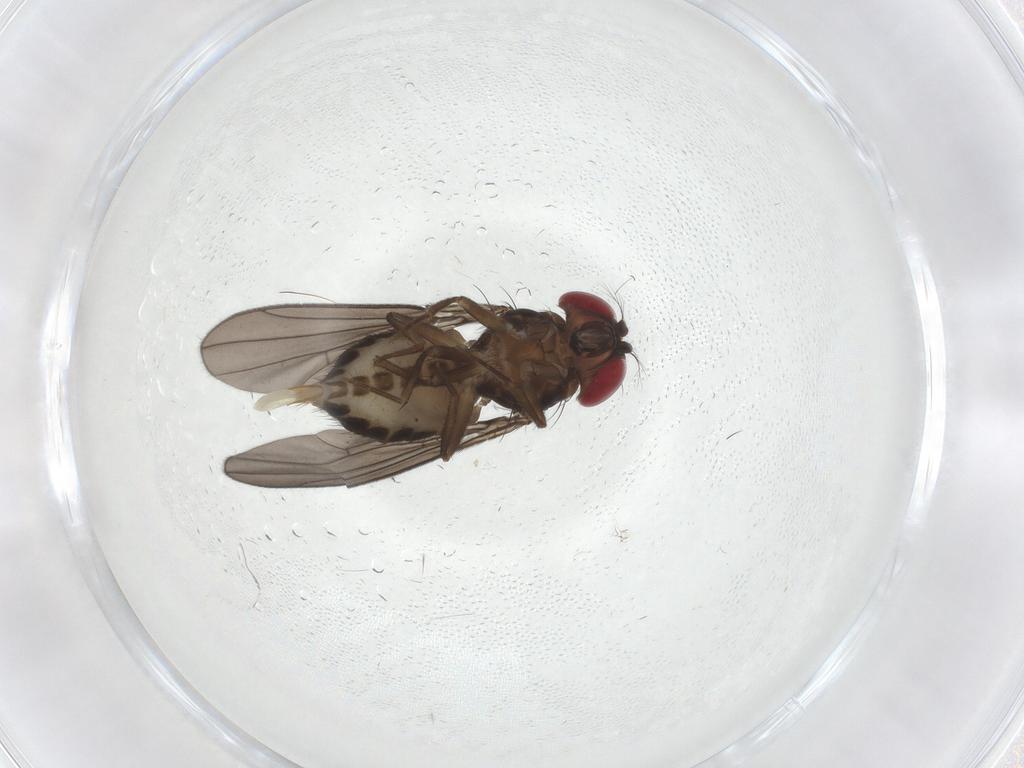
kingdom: Animalia
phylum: Arthropoda
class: Insecta
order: Diptera
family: Drosophilidae
